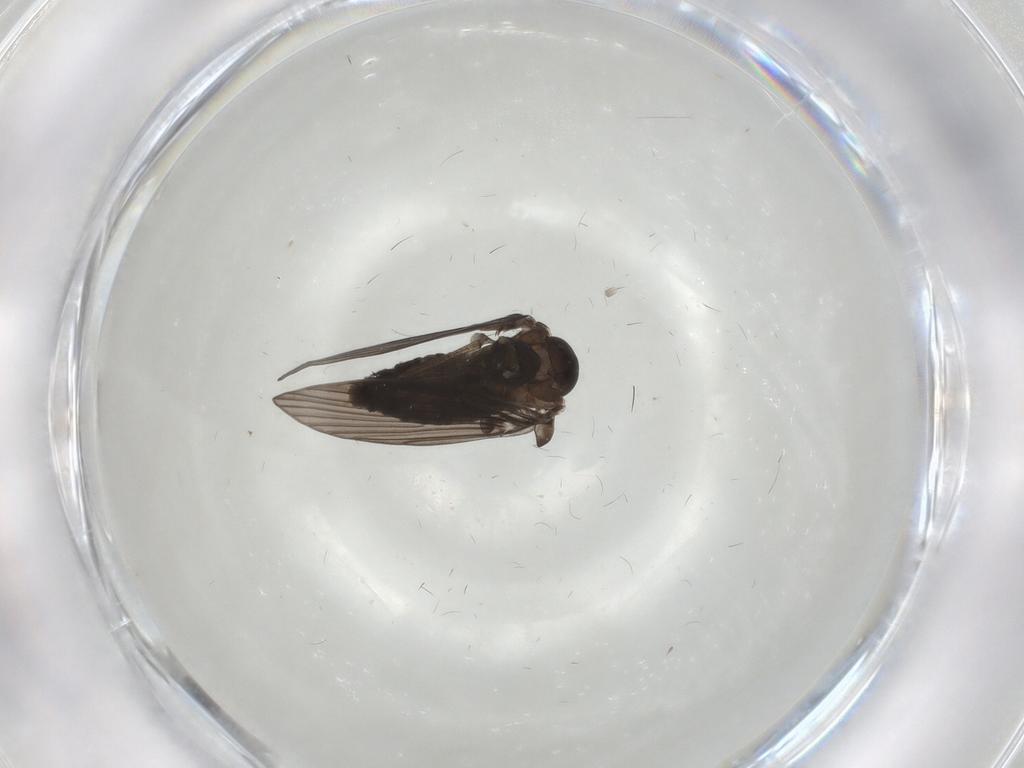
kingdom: Animalia
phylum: Arthropoda
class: Insecta
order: Diptera
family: Psychodidae
